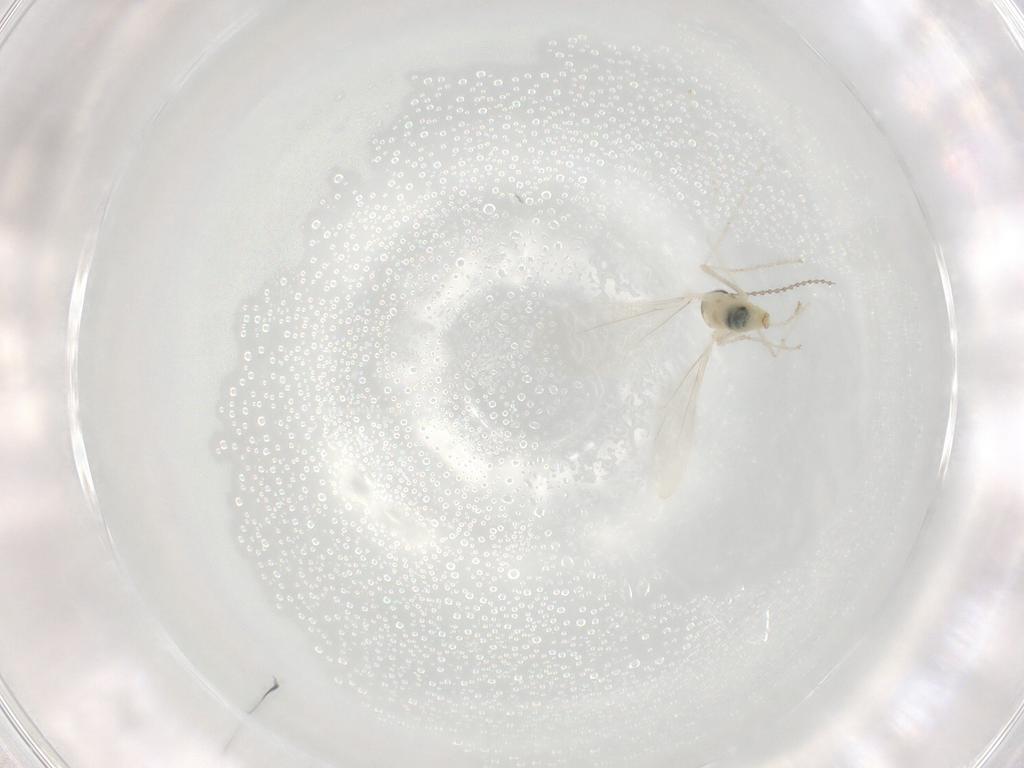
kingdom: Animalia
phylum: Arthropoda
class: Insecta
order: Diptera
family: Cecidomyiidae
